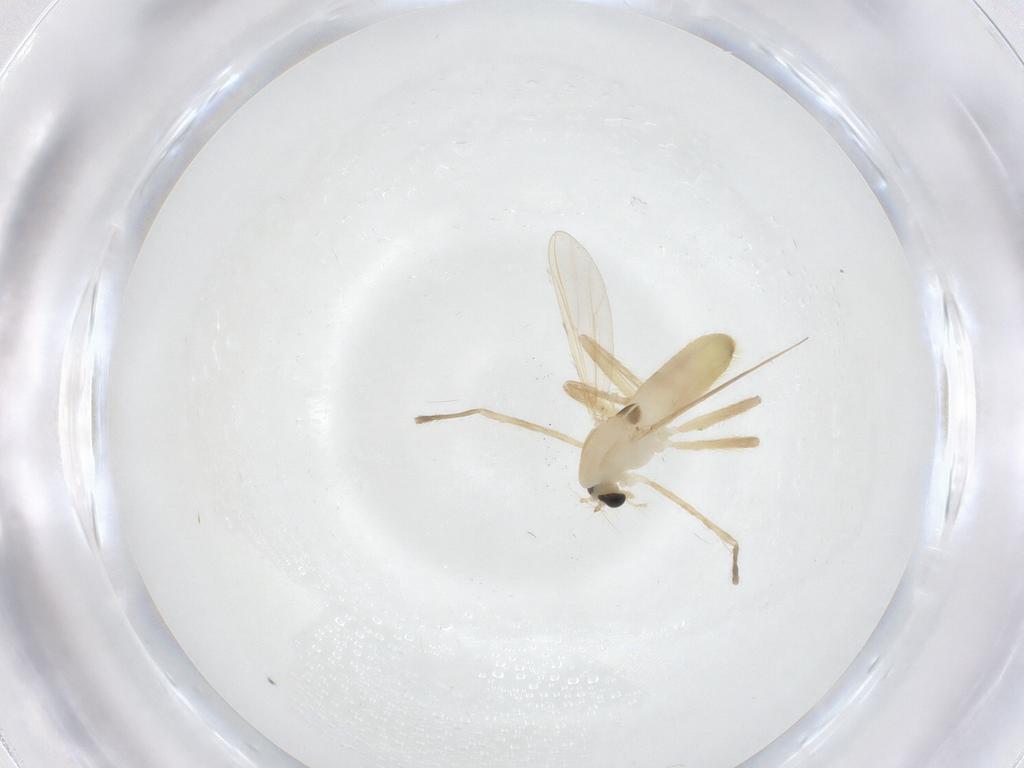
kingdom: Animalia
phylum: Arthropoda
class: Insecta
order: Diptera
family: Chironomidae
